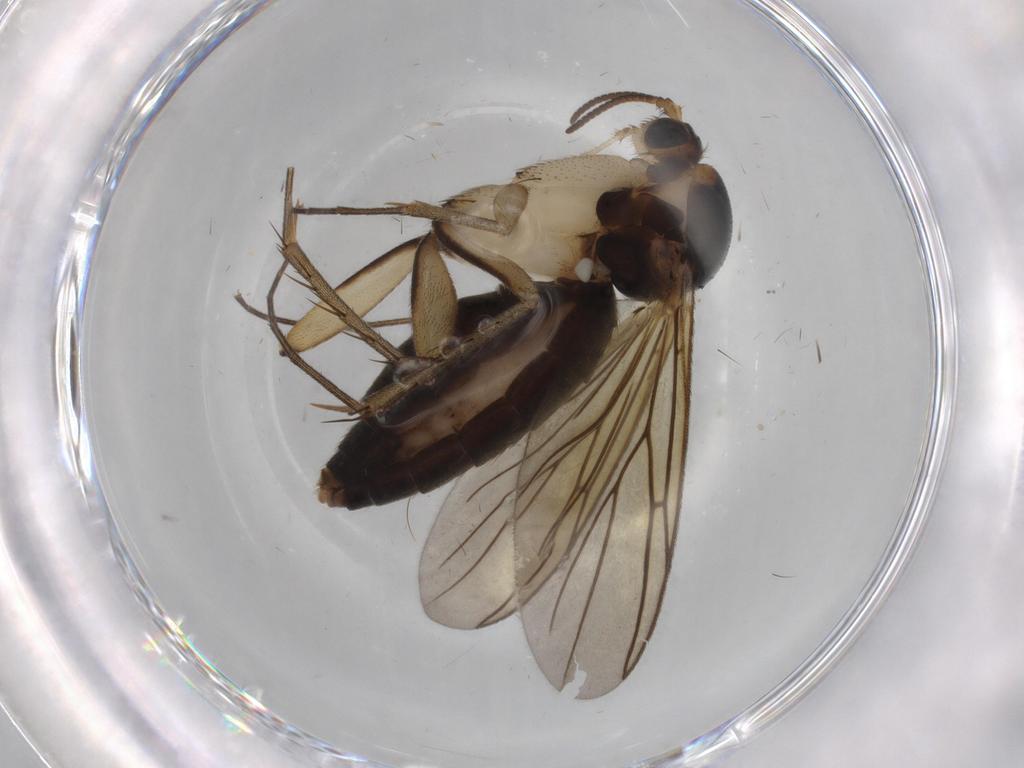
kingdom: Animalia
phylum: Arthropoda
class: Insecta
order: Diptera
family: Mycetophilidae
